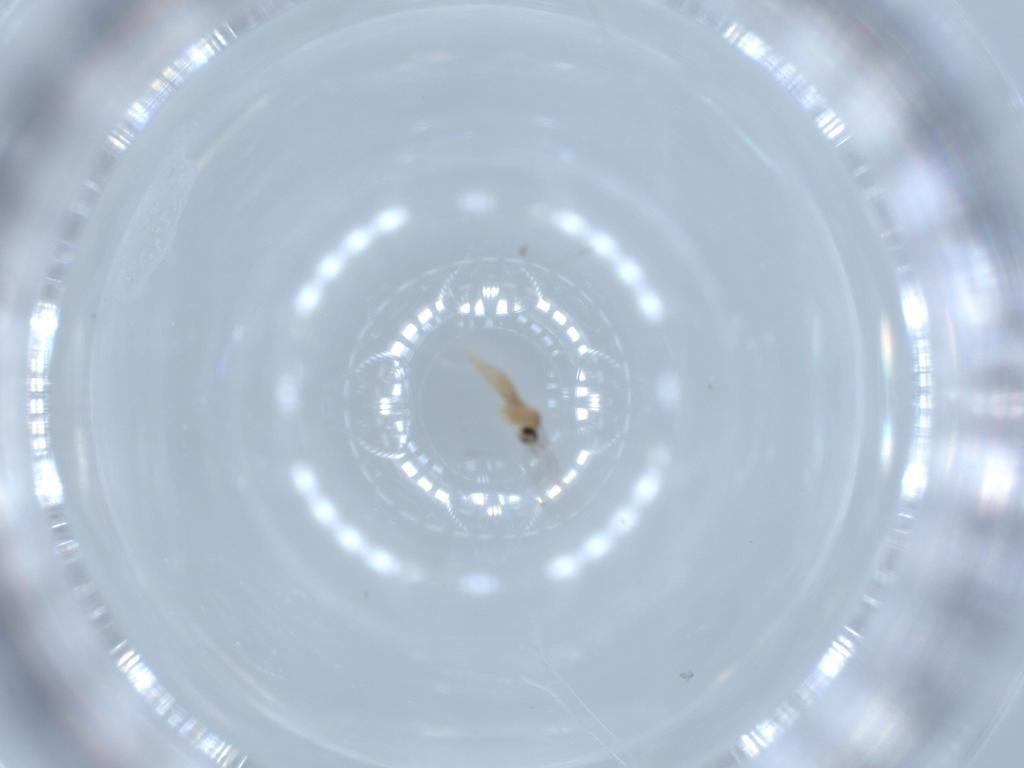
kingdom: Animalia
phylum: Arthropoda
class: Insecta
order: Diptera
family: Cecidomyiidae
